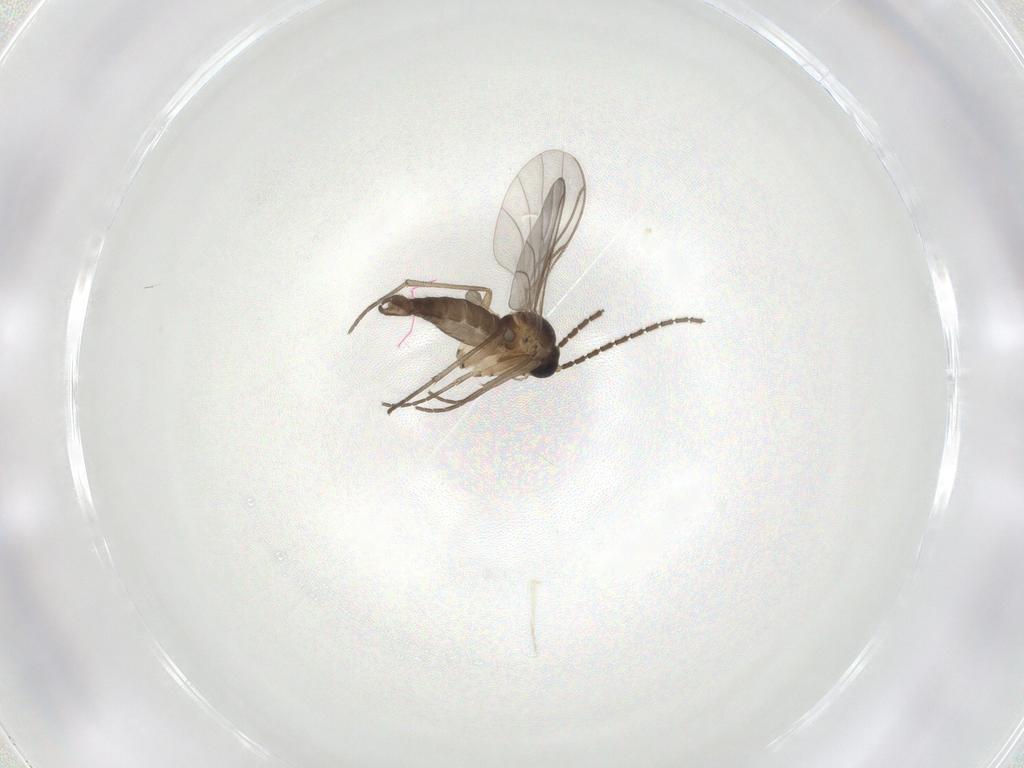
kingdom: Animalia
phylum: Arthropoda
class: Insecta
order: Diptera
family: Sciaridae
